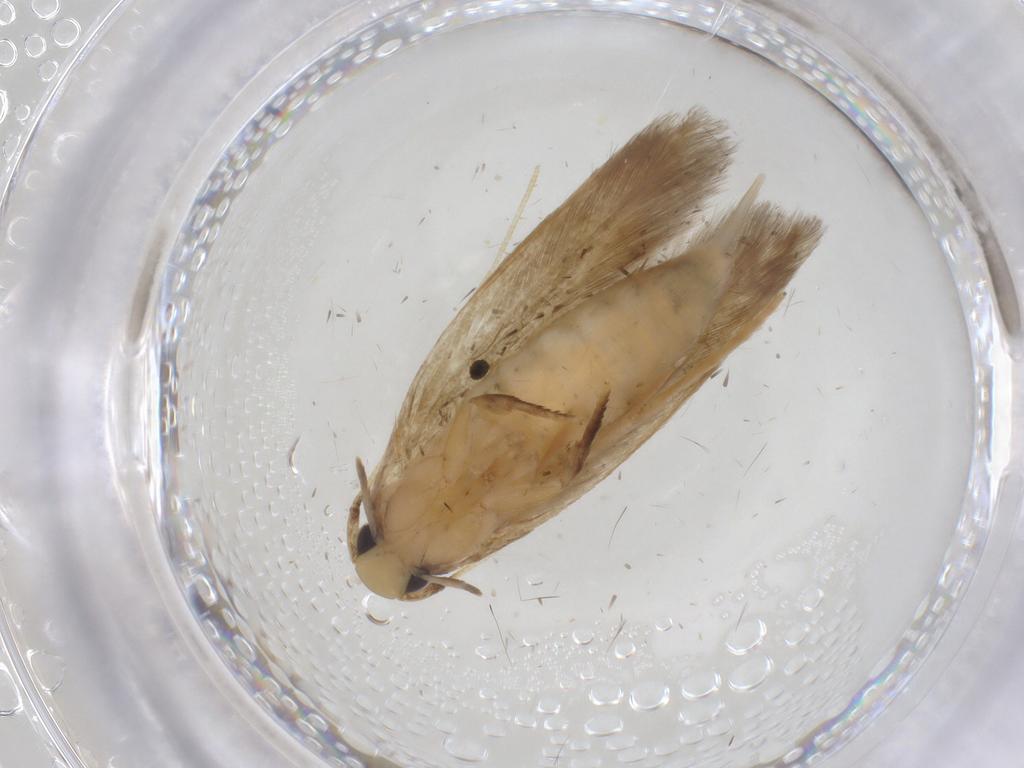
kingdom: Animalia
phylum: Arthropoda
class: Insecta
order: Lepidoptera
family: Tineidae
